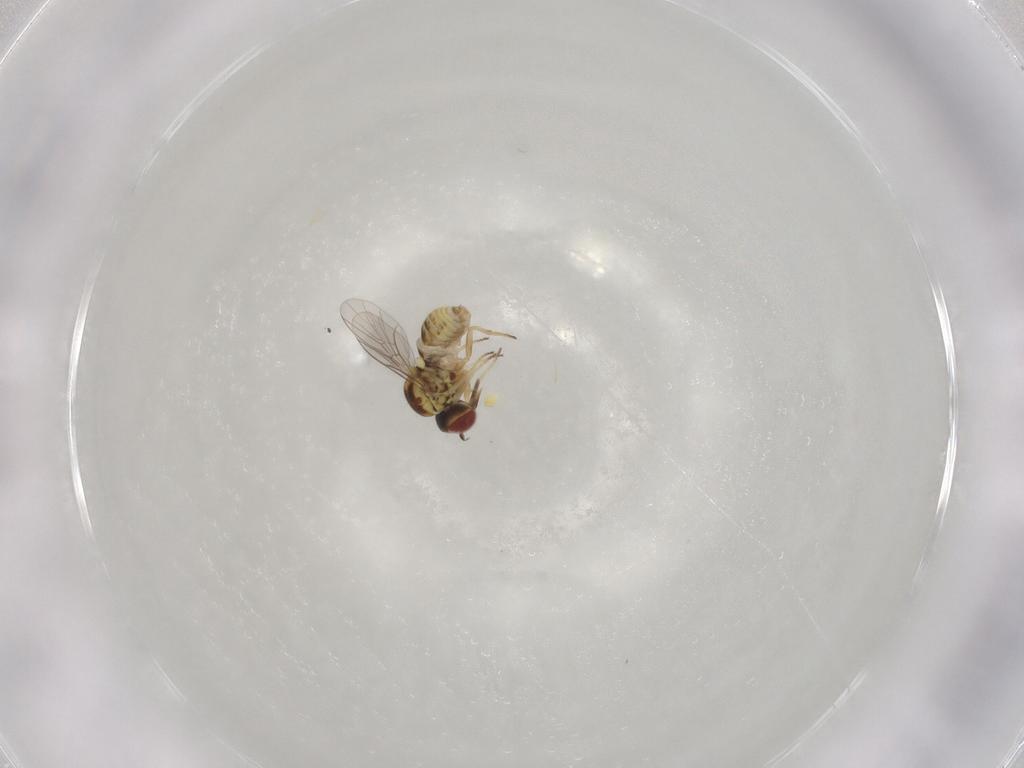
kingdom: Animalia
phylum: Arthropoda
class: Insecta
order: Diptera
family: Mythicomyiidae
